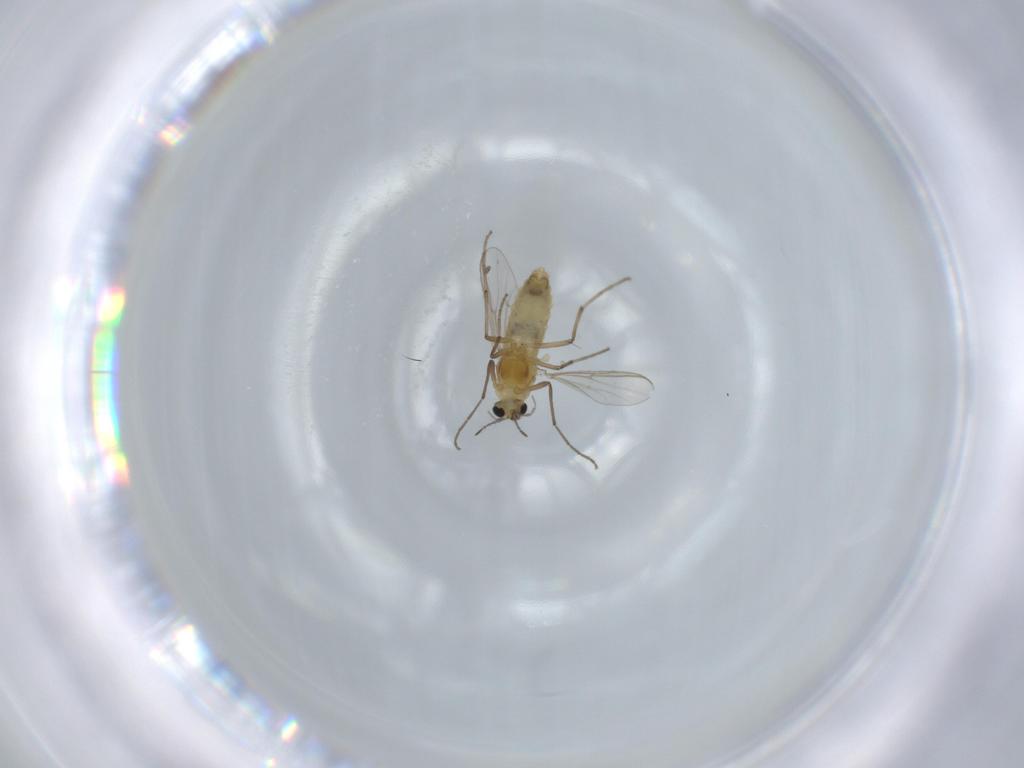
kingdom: Animalia
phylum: Arthropoda
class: Insecta
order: Diptera
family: Chironomidae
